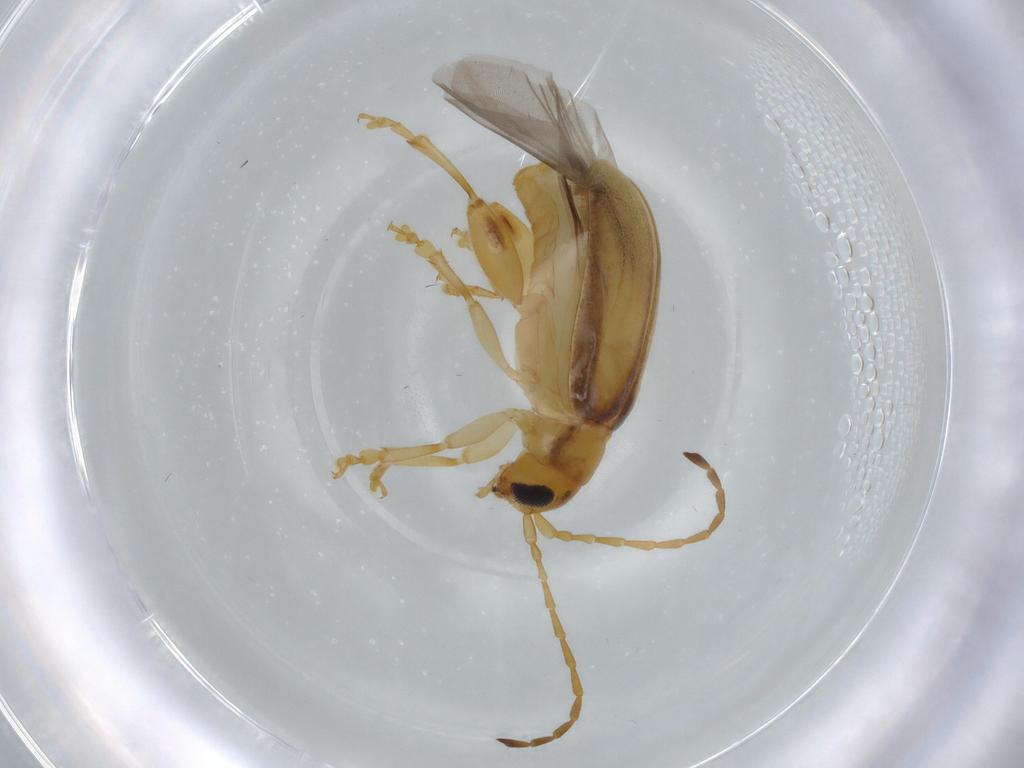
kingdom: Animalia
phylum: Arthropoda
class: Insecta
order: Coleoptera
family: Chrysomelidae
